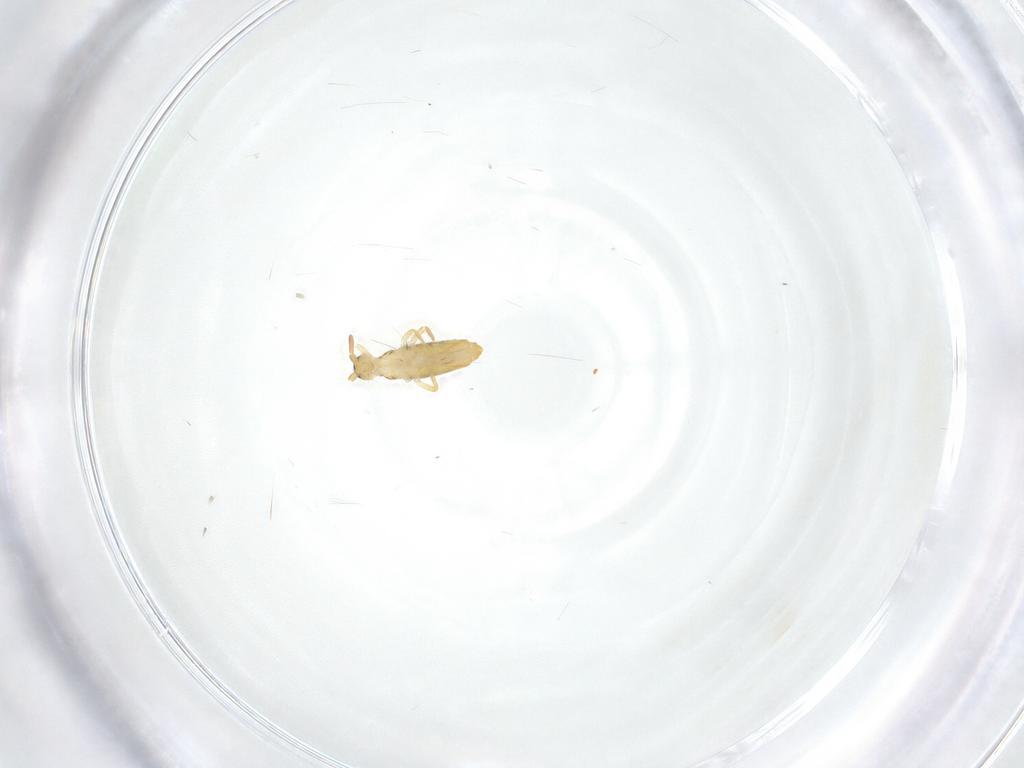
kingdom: Animalia
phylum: Arthropoda
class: Collembola
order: Entomobryomorpha
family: Entomobryidae
